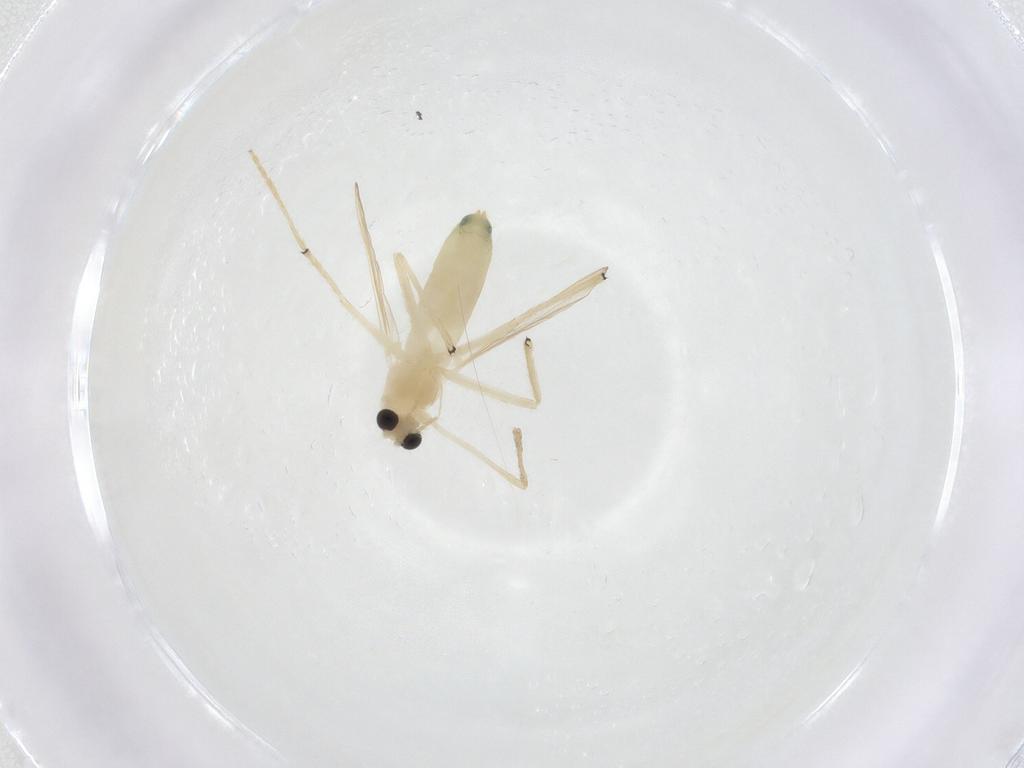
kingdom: Animalia
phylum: Arthropoda
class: Insecta
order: Diptera
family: Chironomidae
